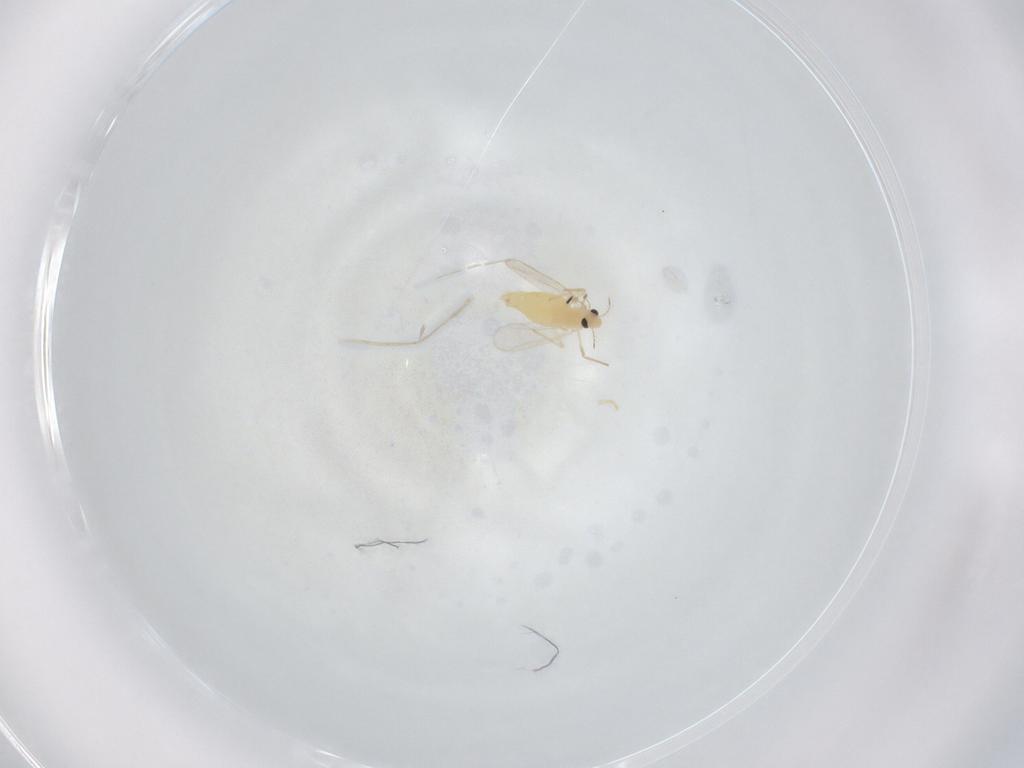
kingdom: Animalia
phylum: Arthropoda
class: Insecta
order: Diptera
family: Chironomidae
